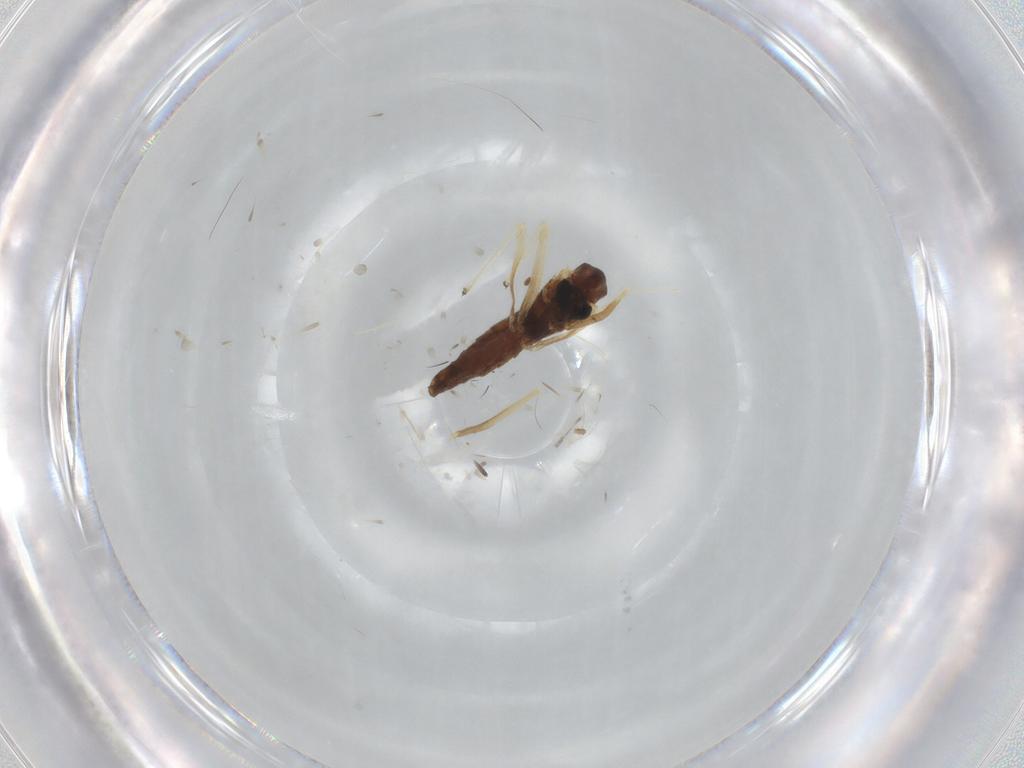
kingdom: Animalia
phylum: Arthropoda
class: Insecta
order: Diptera
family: Chironomidae
